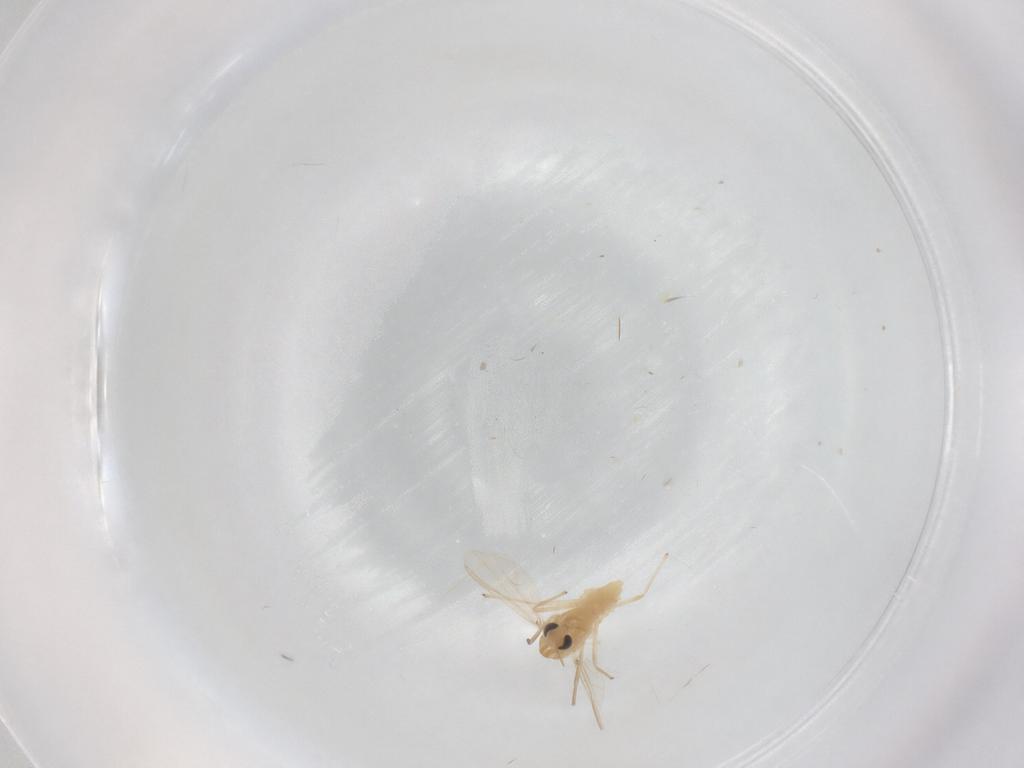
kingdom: Animalia
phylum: Arthropoda
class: Insecta
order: Diptera
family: Chironomidae
